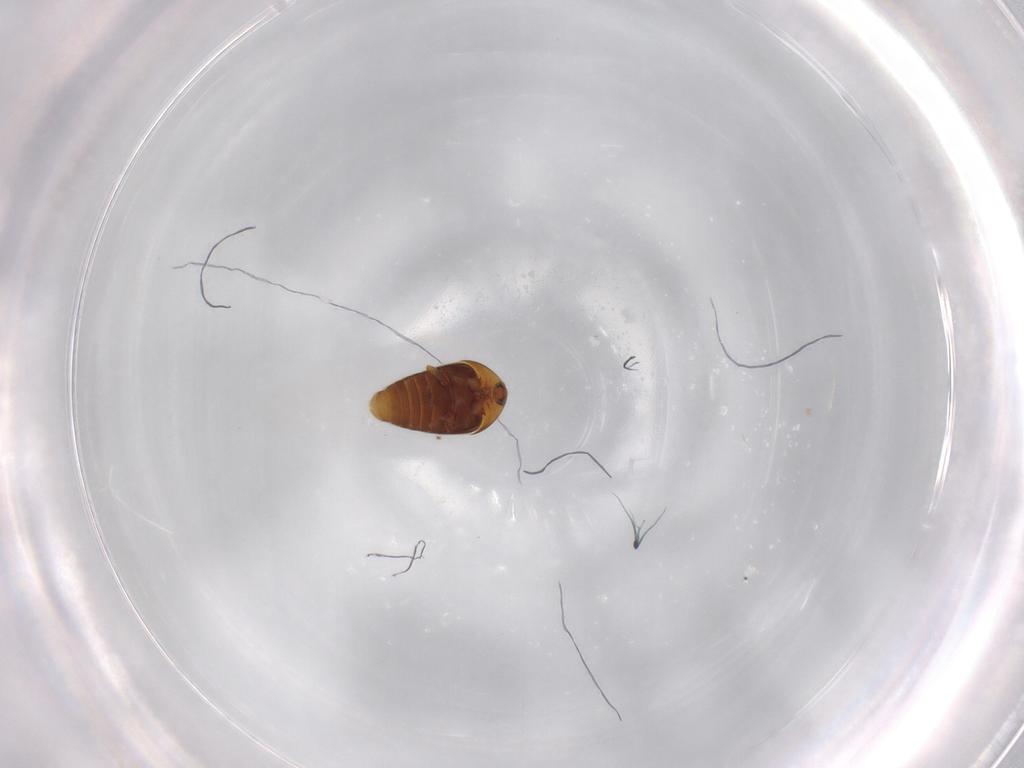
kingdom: Animalia
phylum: Arthropoda
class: Insecta
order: Coleoptera
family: Corylophidae
